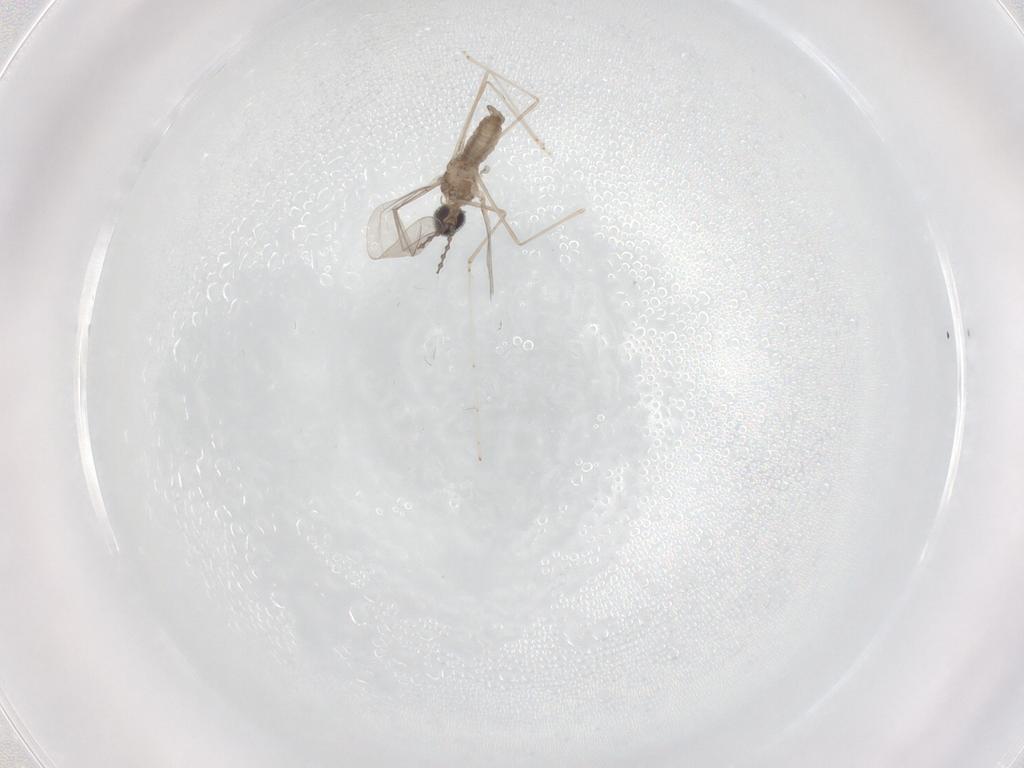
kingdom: Animalia
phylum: Arthropoda
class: Insecta
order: Diptera
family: Cecidomyiidae
